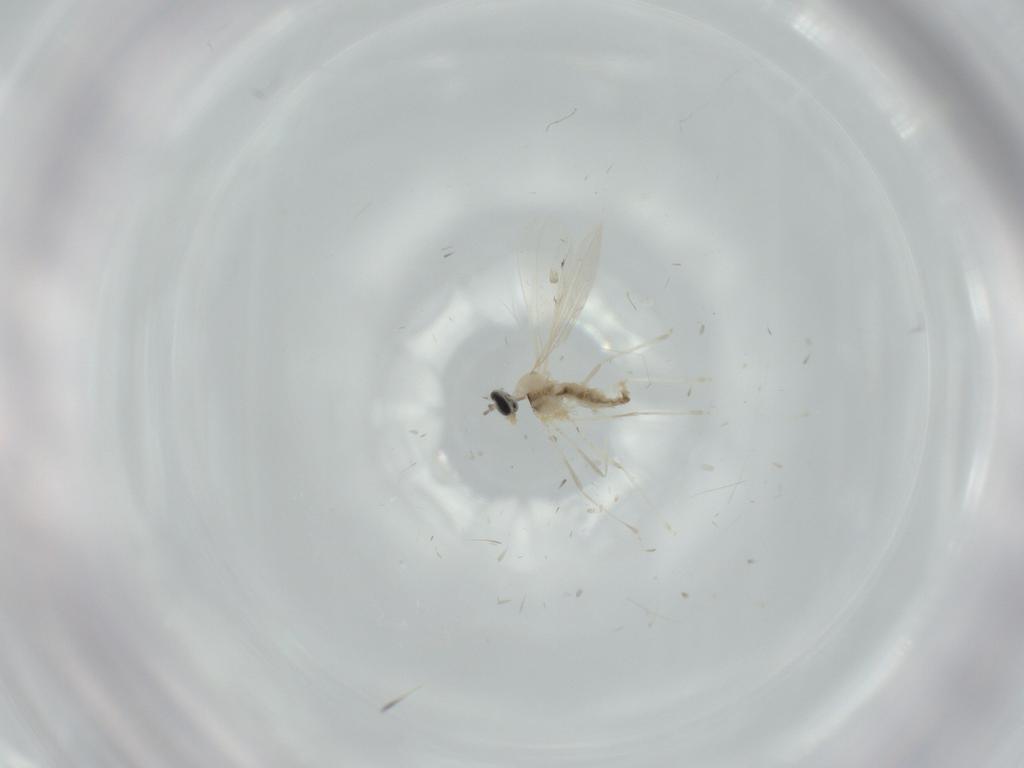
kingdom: Animalia
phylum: Arthropoda
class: Insecta
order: Diptera
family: Cecidomyiidae
